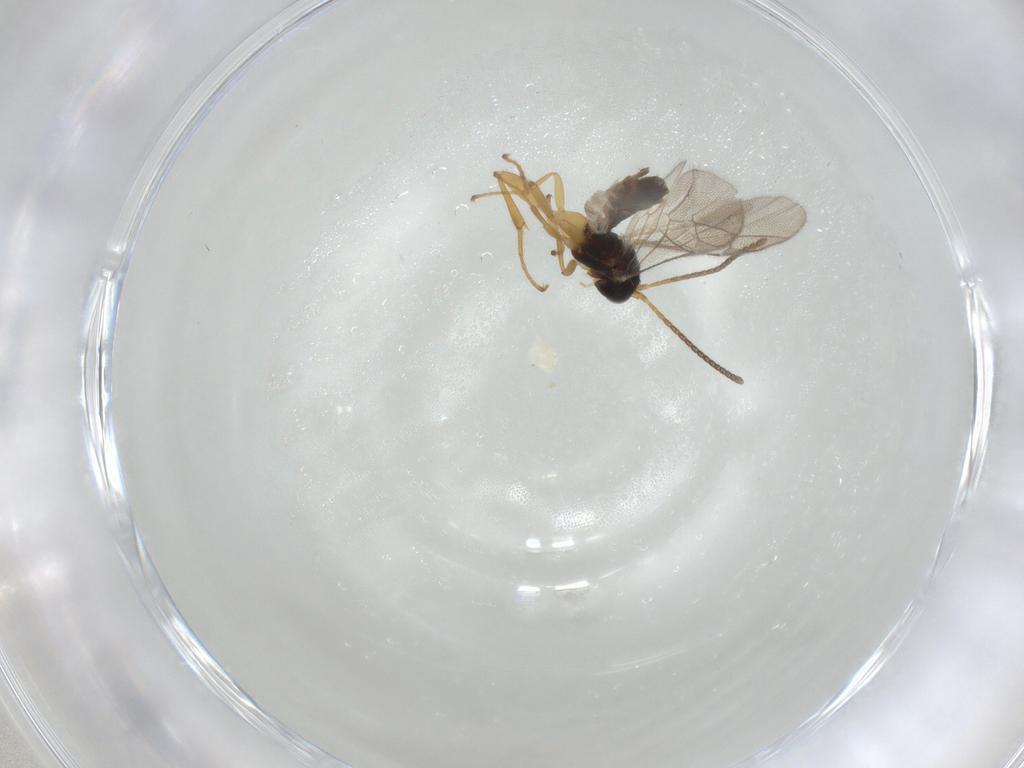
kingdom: Animalia
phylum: Arthropoda
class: Insecta
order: Hymenoptera
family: Ichneumonidae
